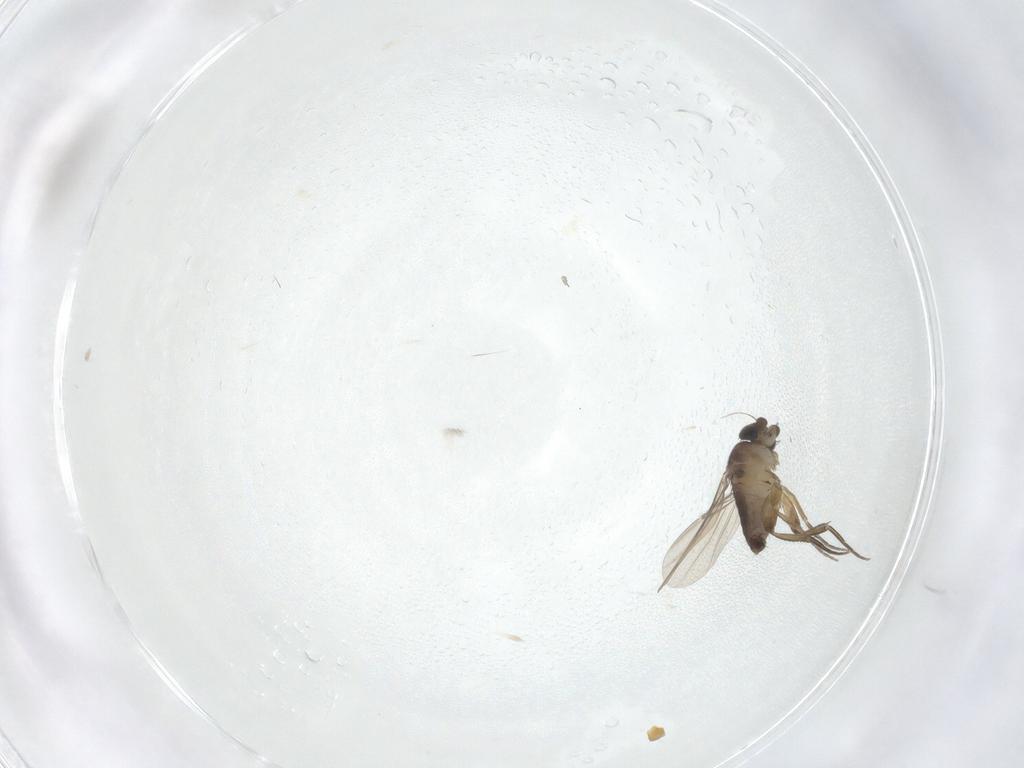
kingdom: Animalia
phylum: Arthropoda
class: Insecta
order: Diptera
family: Phoridae
